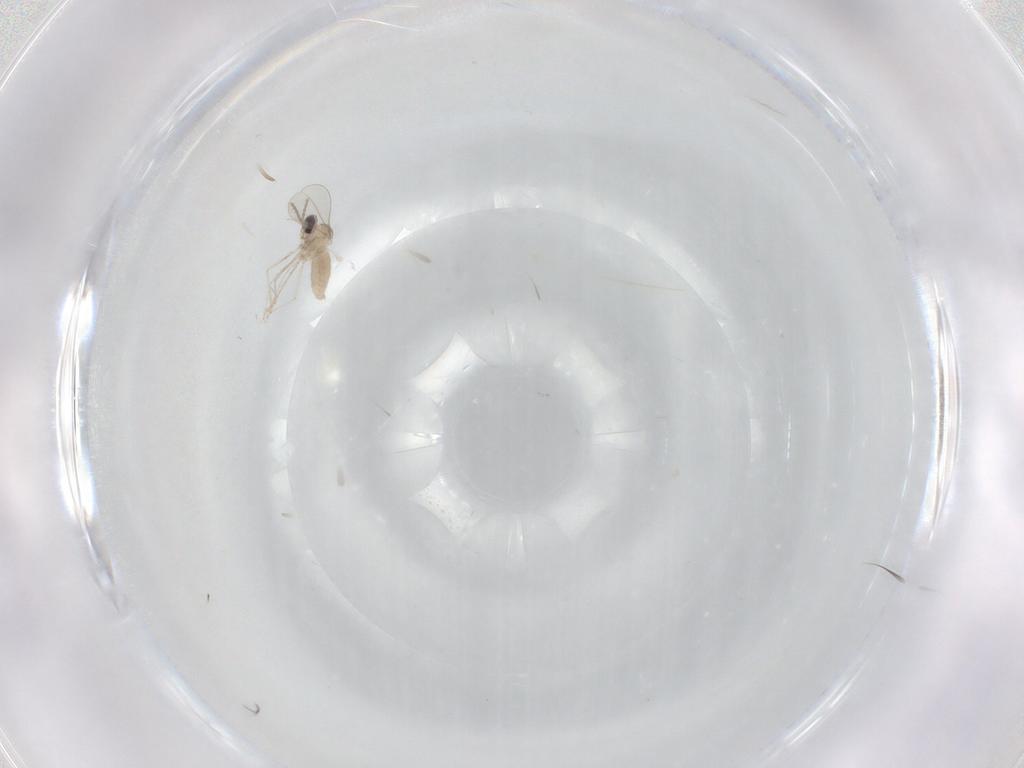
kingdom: Animalia
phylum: Arthropoda
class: Insecta
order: Diptera
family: Cecidomyiidae
